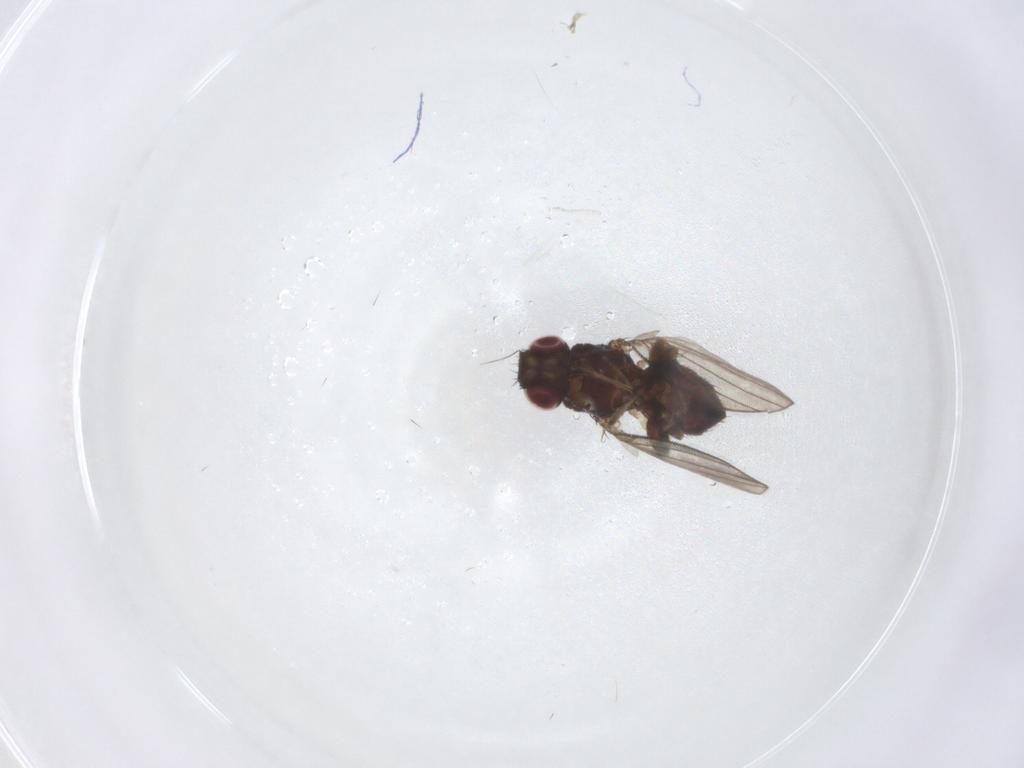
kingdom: Animalia
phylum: Arthropoda
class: Insecta
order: Diptera
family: Milichiidae
